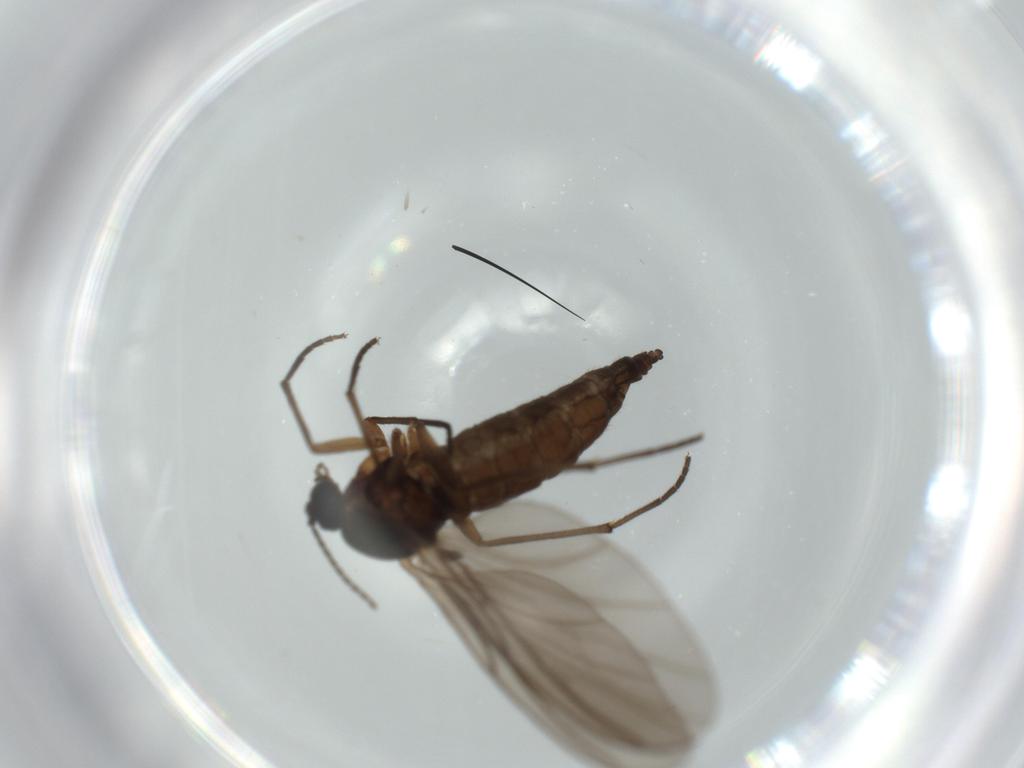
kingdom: Animalia
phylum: Arthropoda
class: Insecta
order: Diptera
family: Sciaridae
